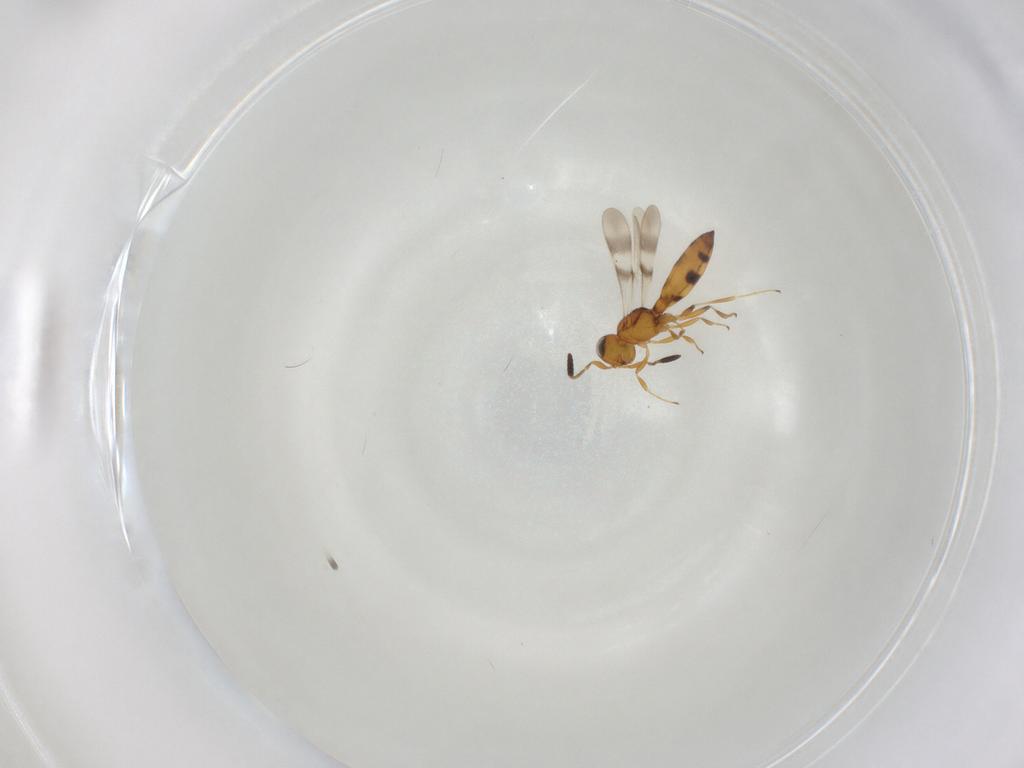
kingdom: Animalia
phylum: Arthropoda
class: Insecta
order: Hymenoptera
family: Scelionidae
